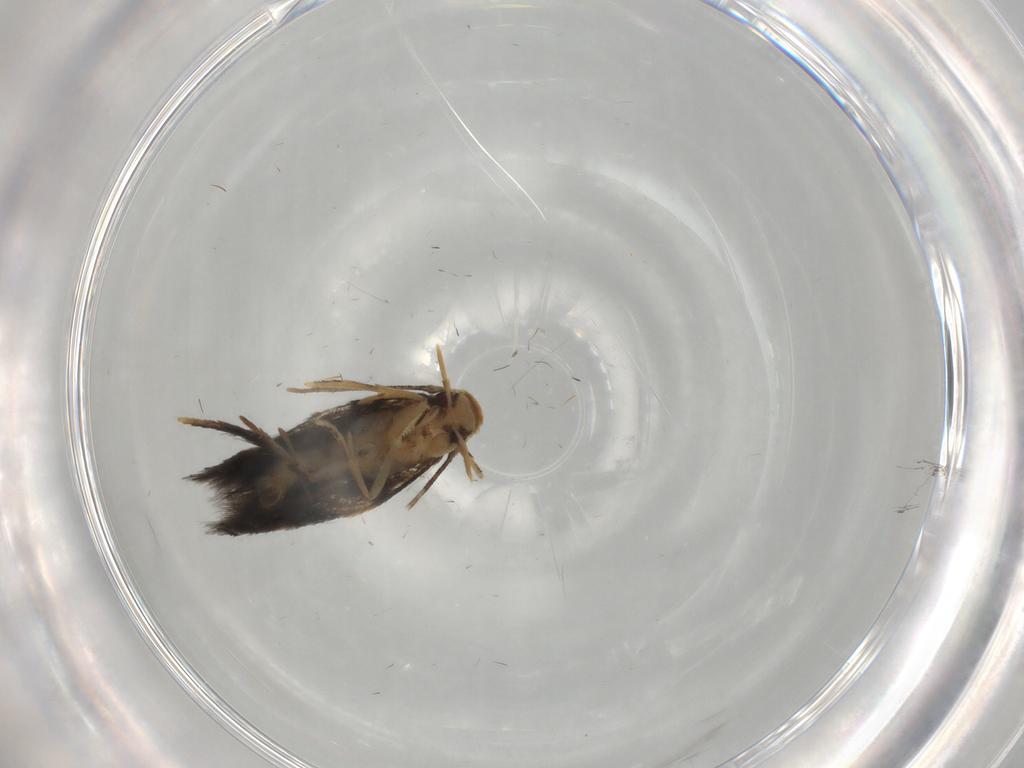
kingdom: Animalia
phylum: Arthropoda
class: Insecta
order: Lepidoptera
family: Gelechiidae
